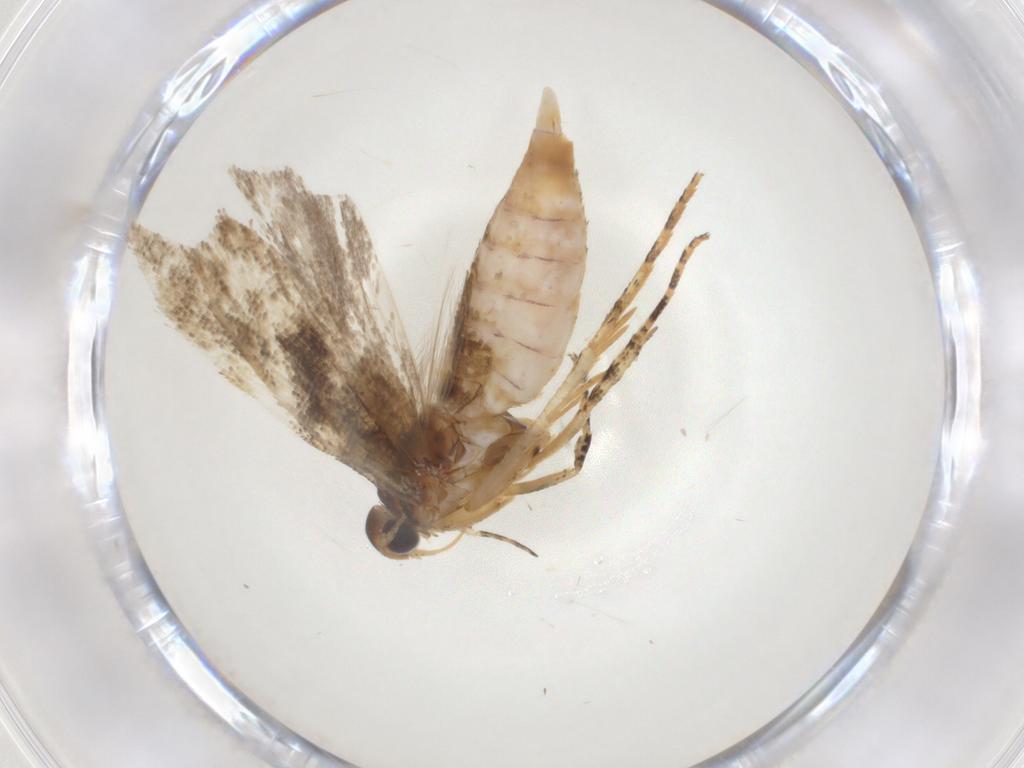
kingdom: Animalia
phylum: Arthropoda
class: Insecta
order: Lepidoptera
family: Gelechiidae
